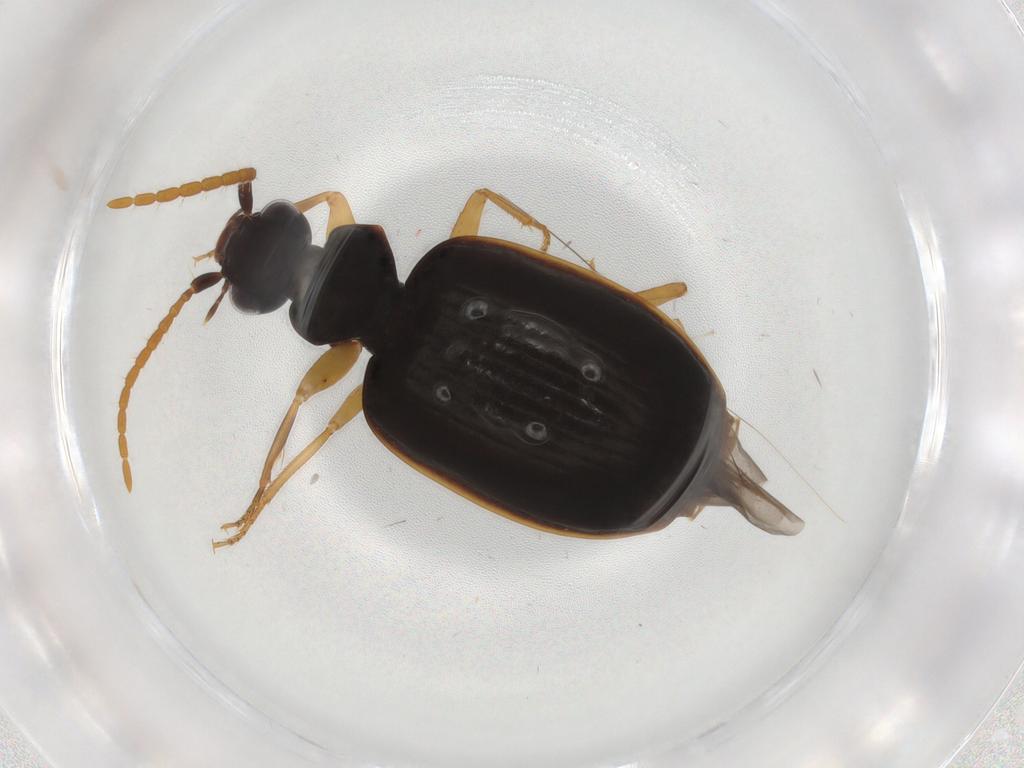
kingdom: Animalia
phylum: Arthropoda
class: Insecta
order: Coleoptera
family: Carabidae
